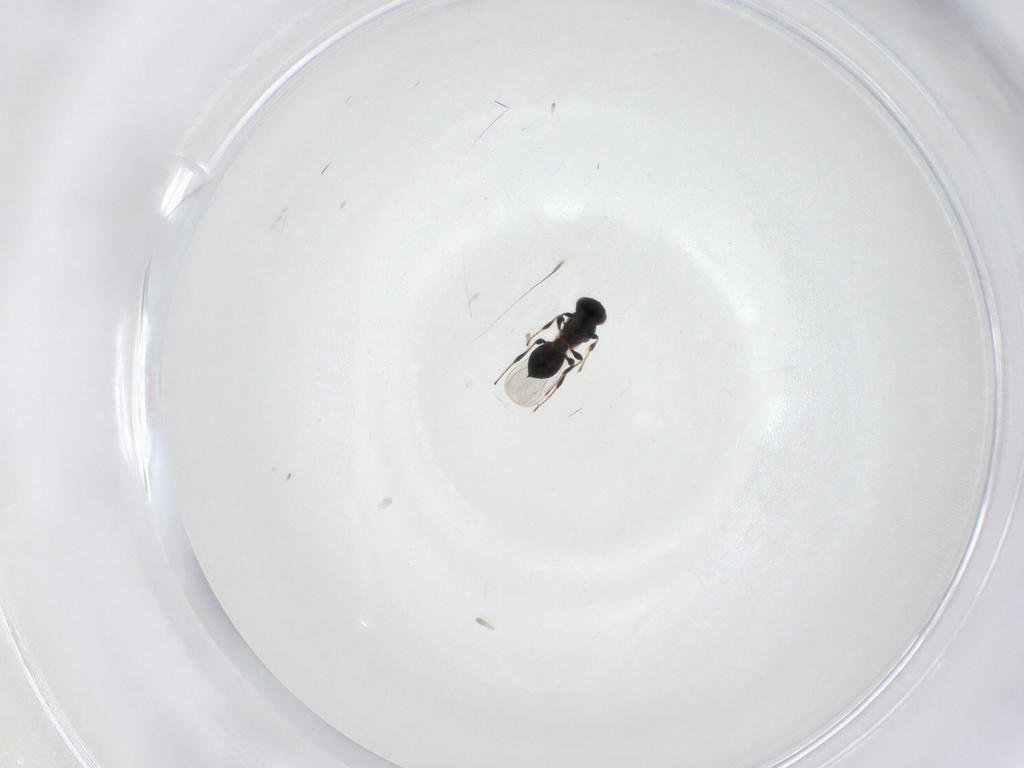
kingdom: Animalia
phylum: Arthropoda
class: Insecta
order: Hymenoptera
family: Platygastridae
